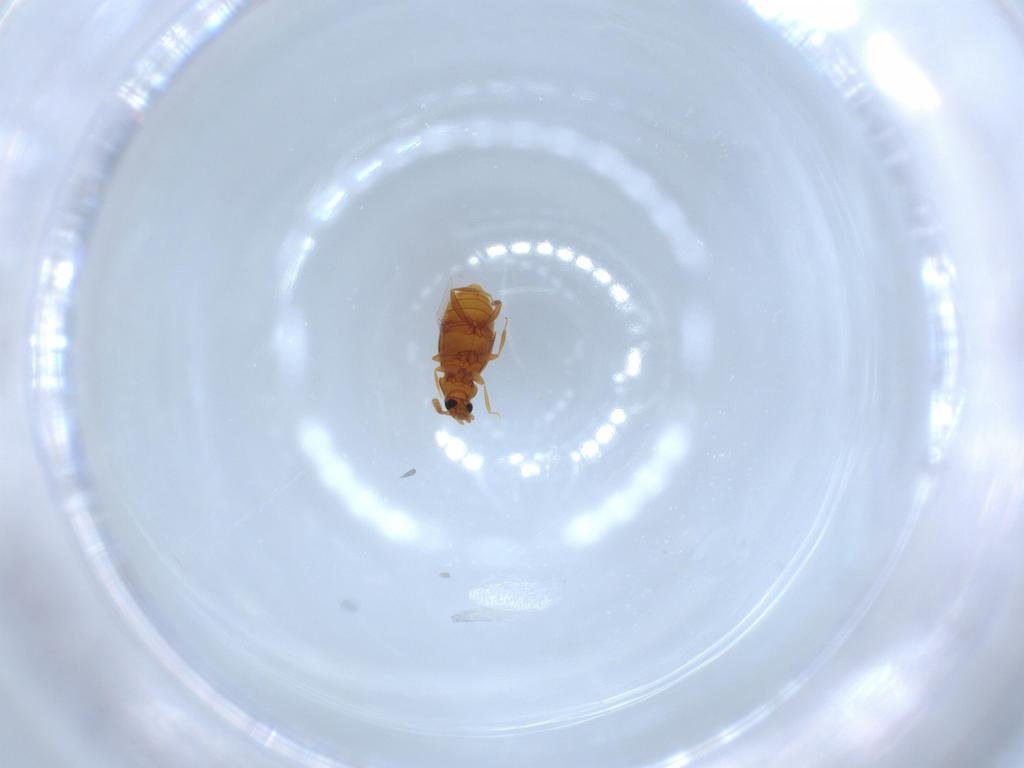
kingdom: Animalia
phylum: Arthropoda
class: Insecta
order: Coleoptera
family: Staphylinidae
